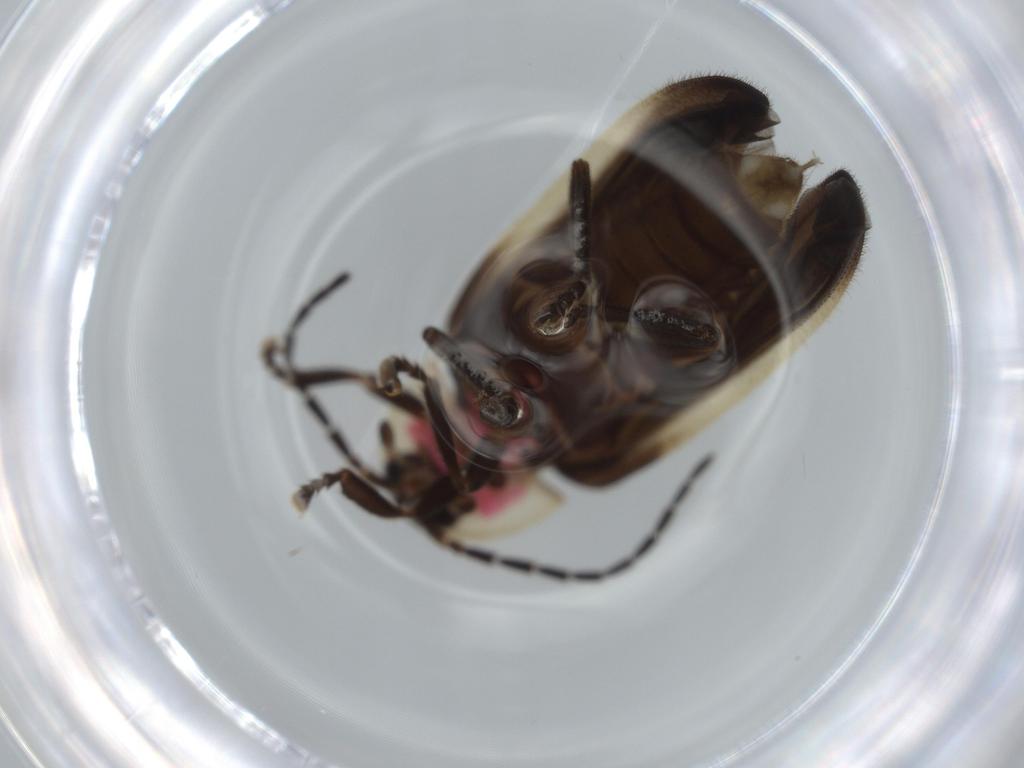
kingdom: Animalia
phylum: Arthropoda
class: Insecta
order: Coleoptera
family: Lampyridae
